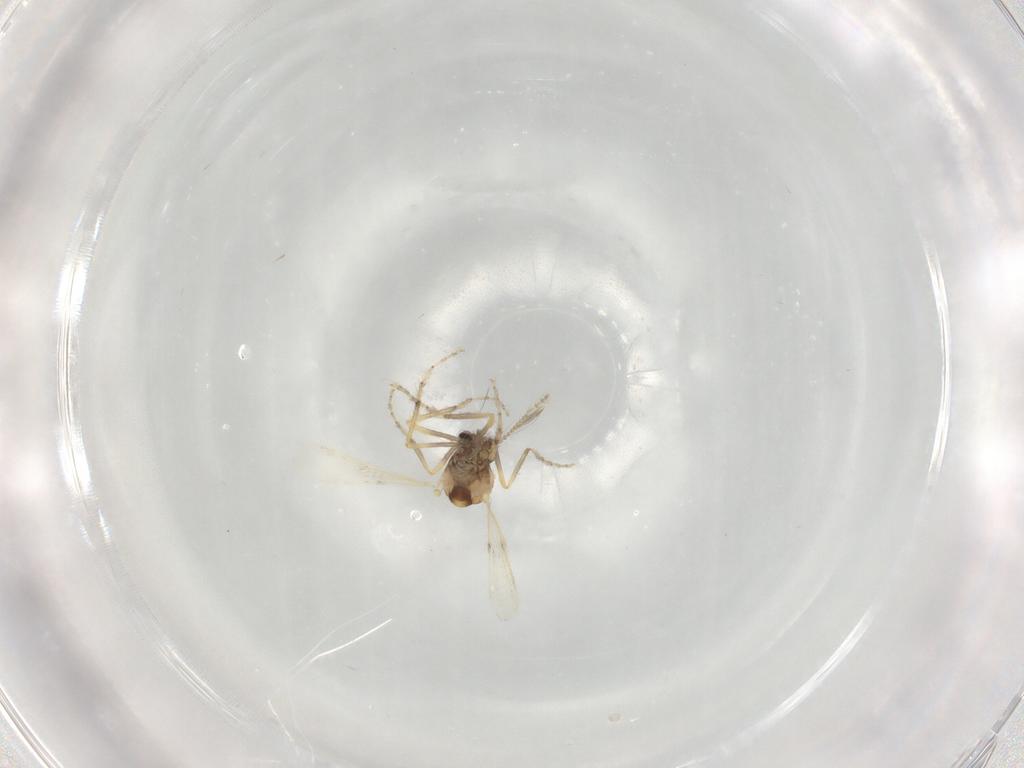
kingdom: Animalia
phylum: Arthropoda
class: Insecta
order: Diptera
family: Ceratopogonidae
